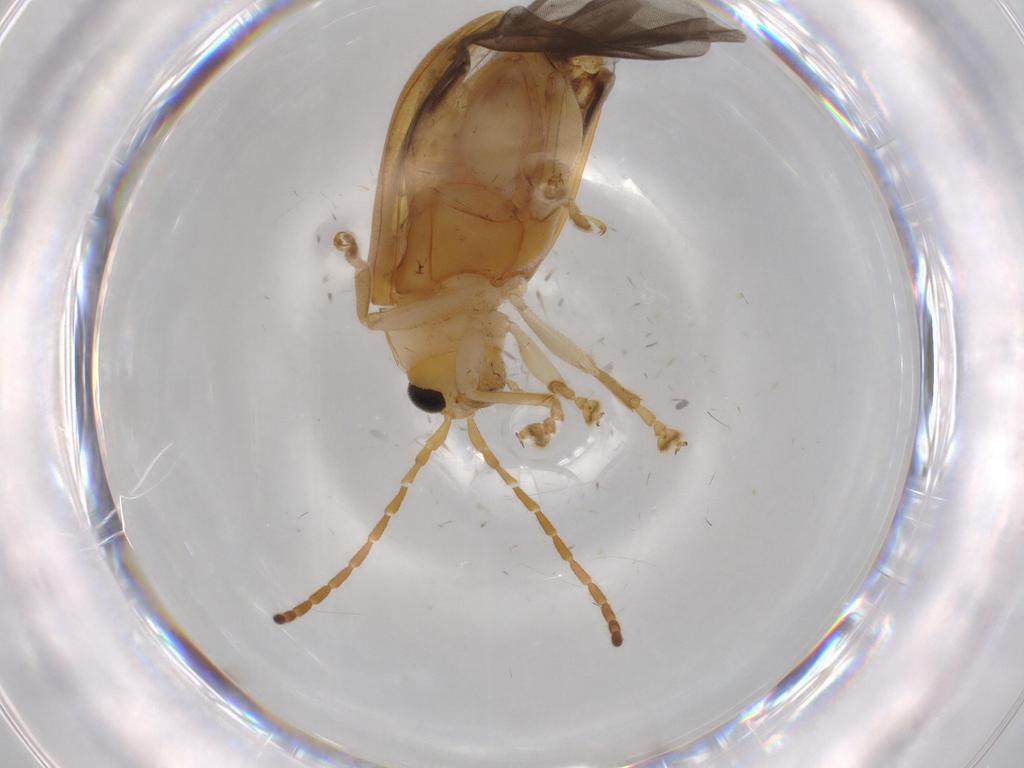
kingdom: Animalia
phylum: Arthropoda
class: Insecta
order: Coleoptera
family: Chrysomelidae
